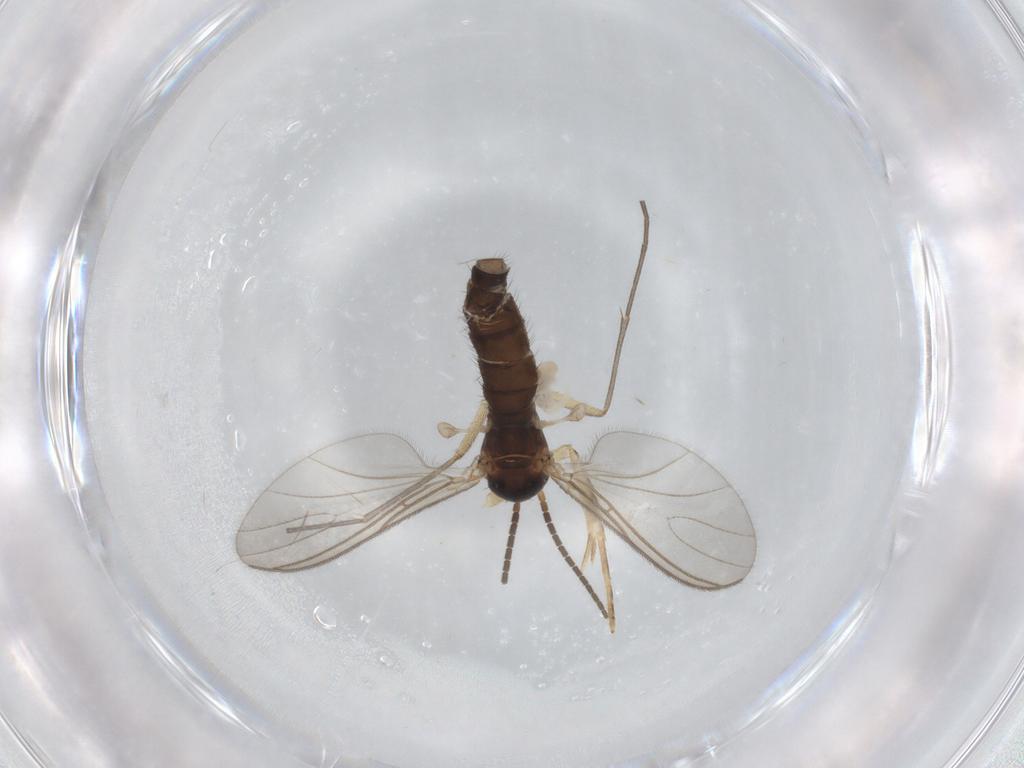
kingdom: Animalia
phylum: Arthropoda
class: Insecta
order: Diptera
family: Sciaridae
